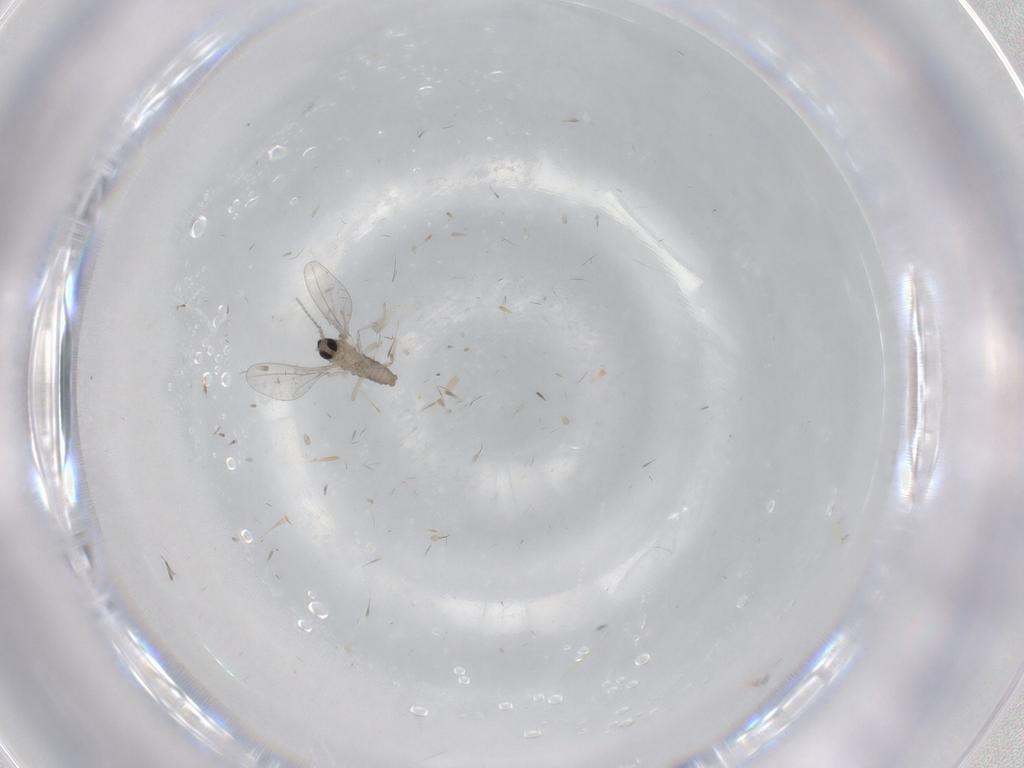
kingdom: Animalia
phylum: Arthropoda
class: Insecta
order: Diptera
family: Cecidomyiidae
